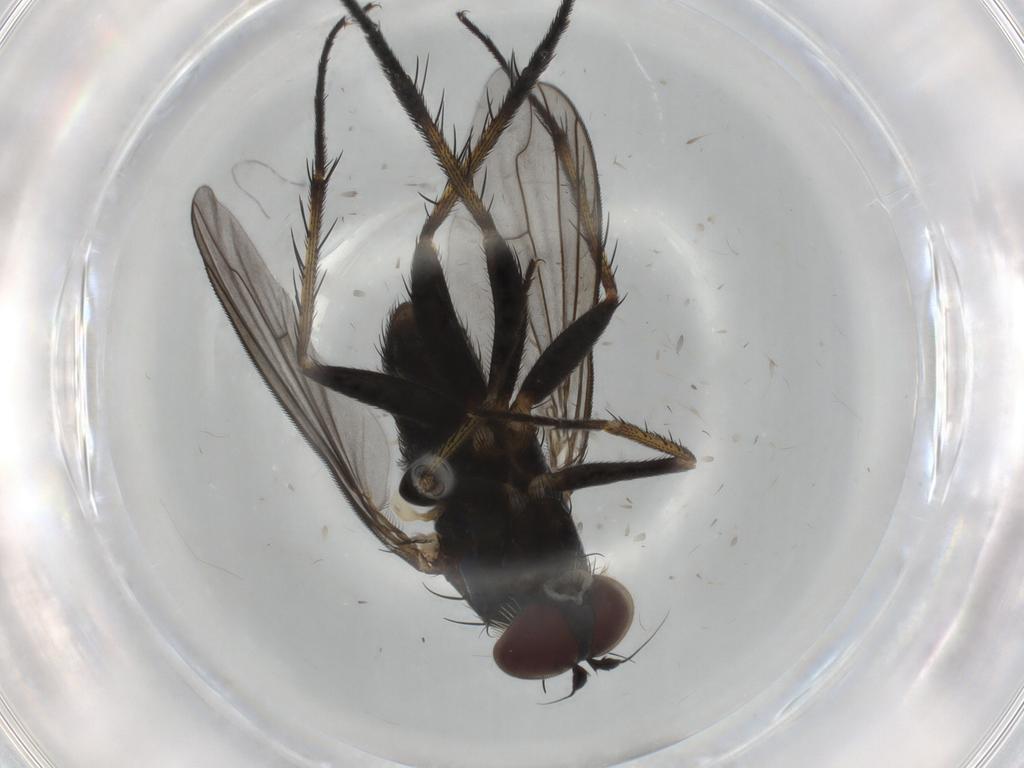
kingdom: Animalia
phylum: Arthropoda
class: Insecta
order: Diptera
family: Dolichopodidae
